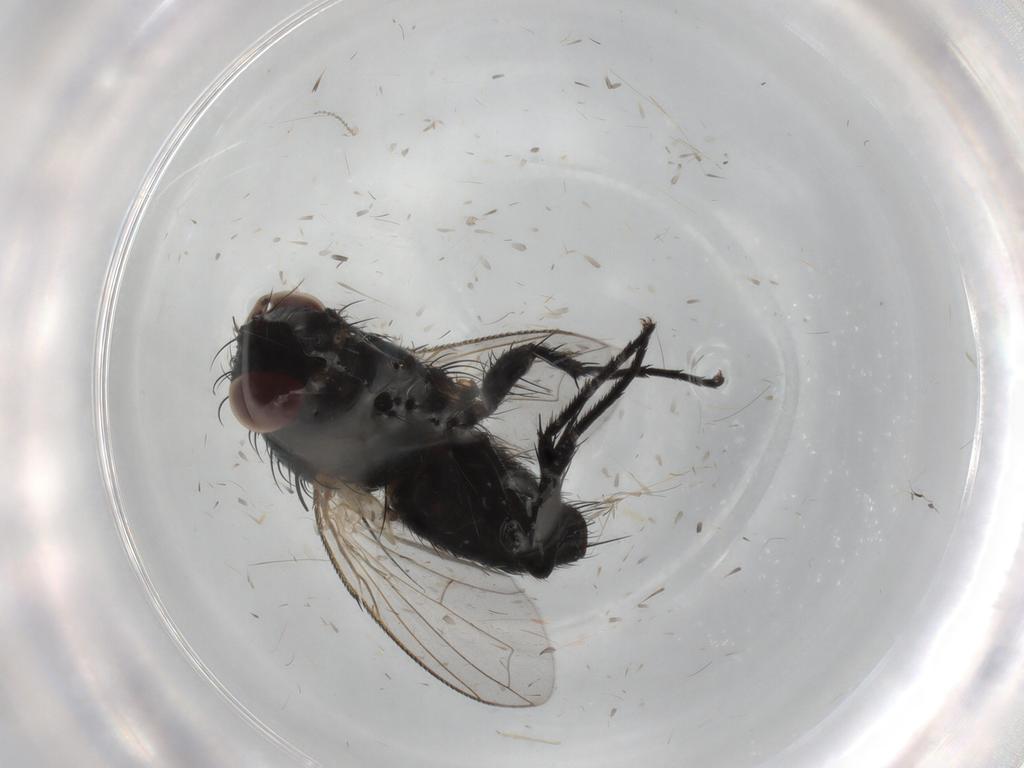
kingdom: Animalia
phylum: Arthropoda
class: Insecta
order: Diptera
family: Tachinidae
